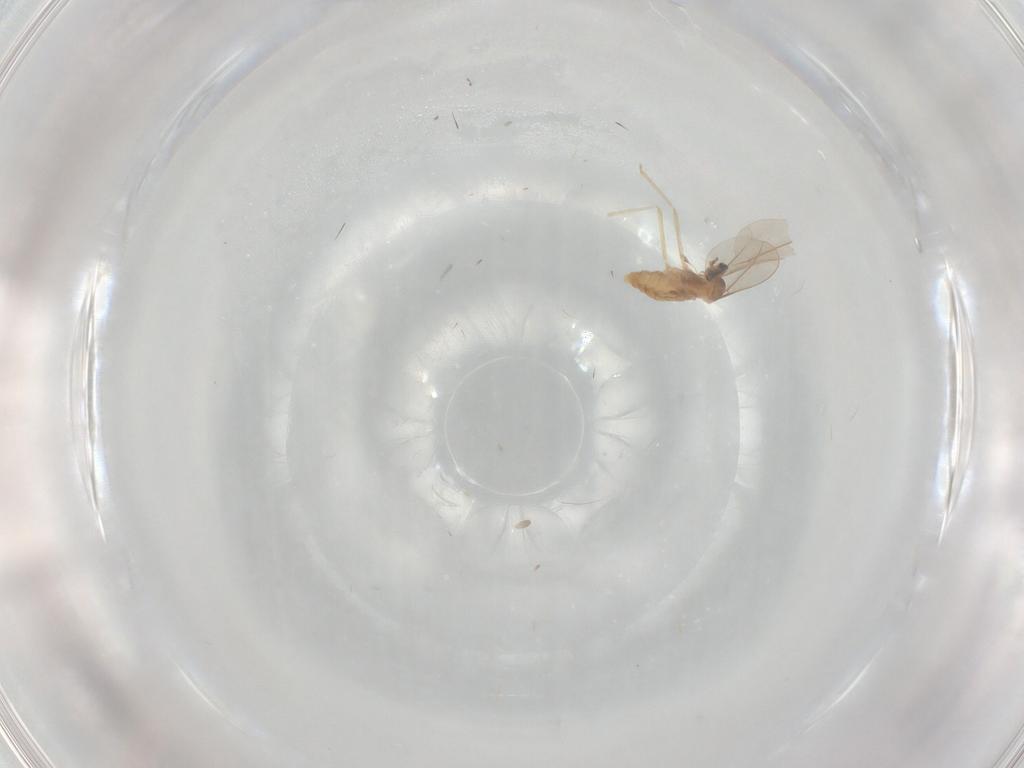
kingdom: Animalia
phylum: Arthropoda
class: Insecta
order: Diptera
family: Cecidomyiidae
